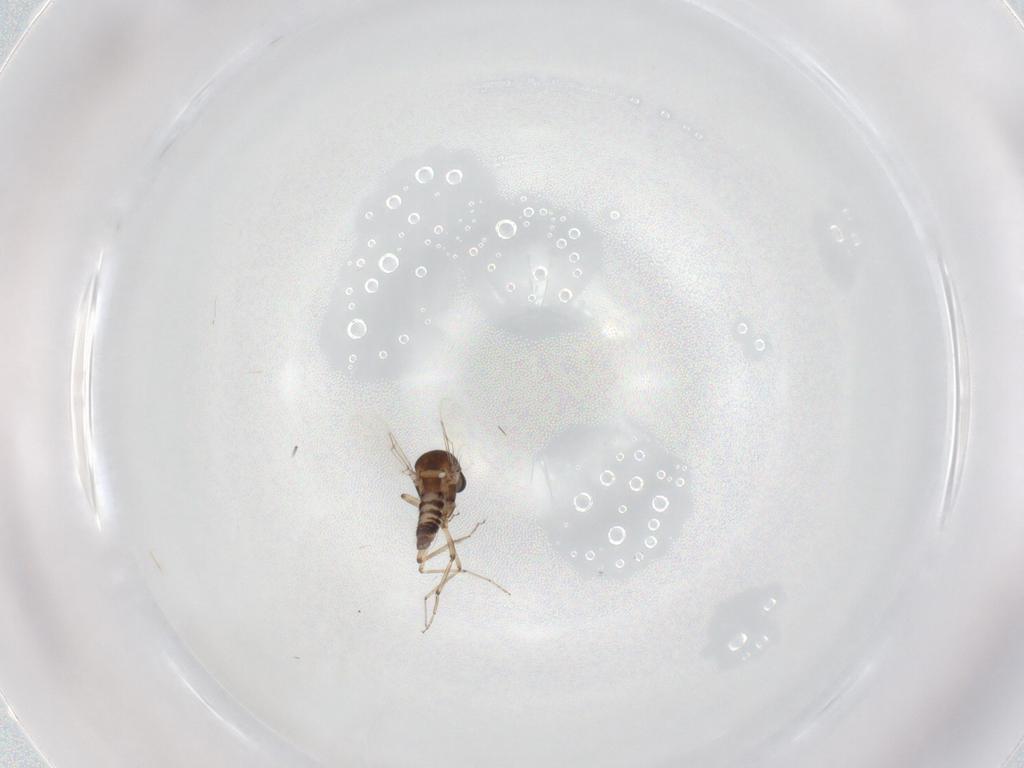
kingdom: Animalia
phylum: Arthropoda
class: Insecta
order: Diptera
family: Ceratopogonidae
